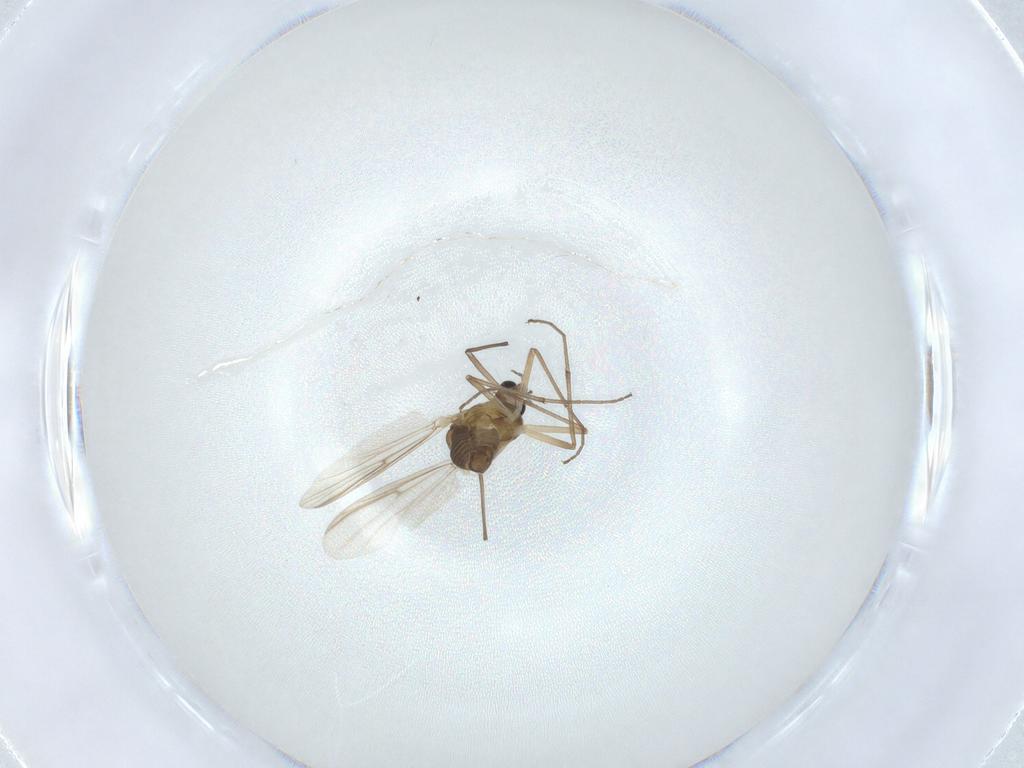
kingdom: Animalia
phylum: Arthropoda
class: Insecta
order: Diptera
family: Chironomidae
